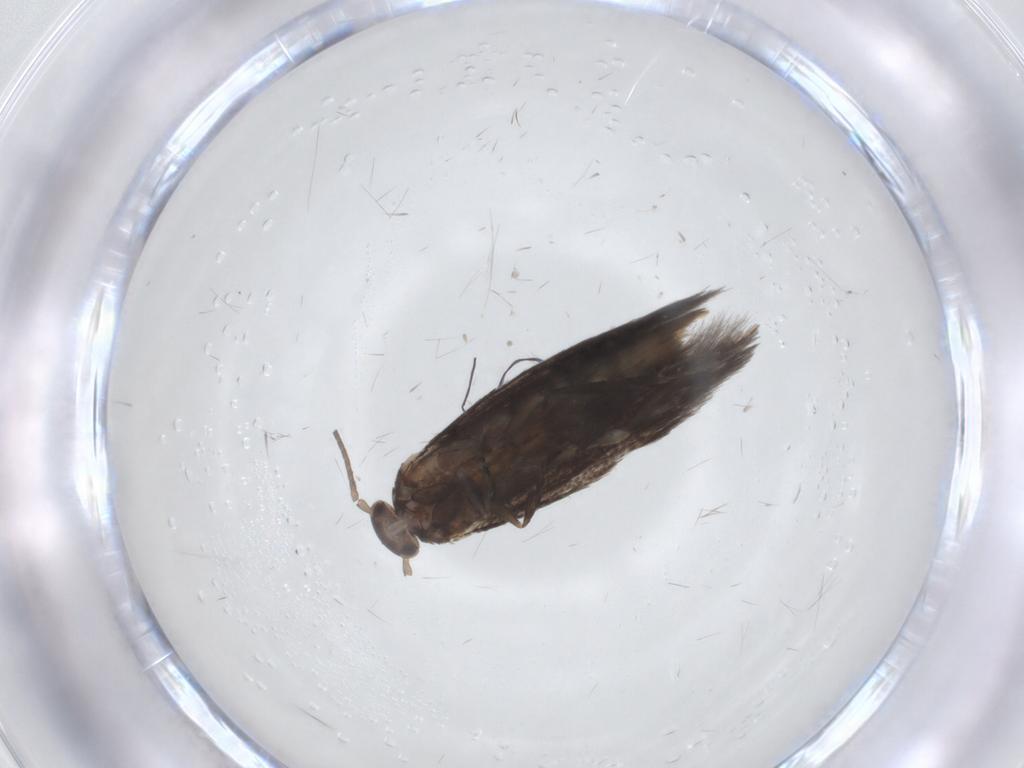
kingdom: Animalia
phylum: Arthropoda
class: Insecta
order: Lepidoptera
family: Elachistidae
